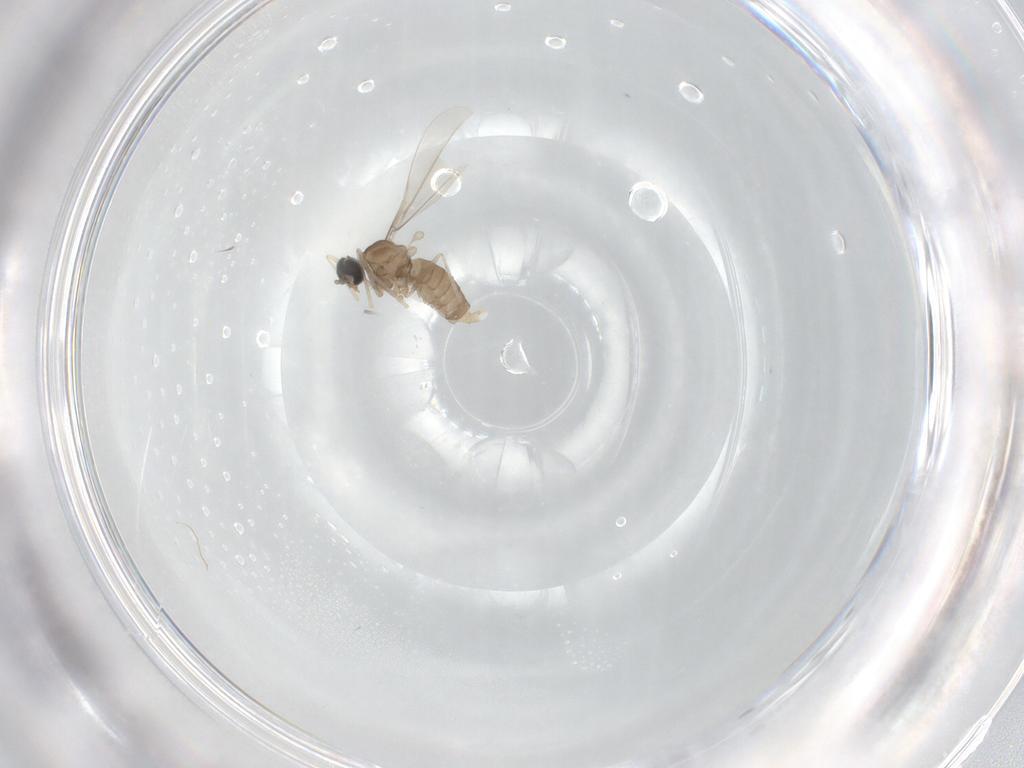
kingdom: Animalia
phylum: Arthropoda
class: Insecta
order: Diptera
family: Cecidomyiidae
